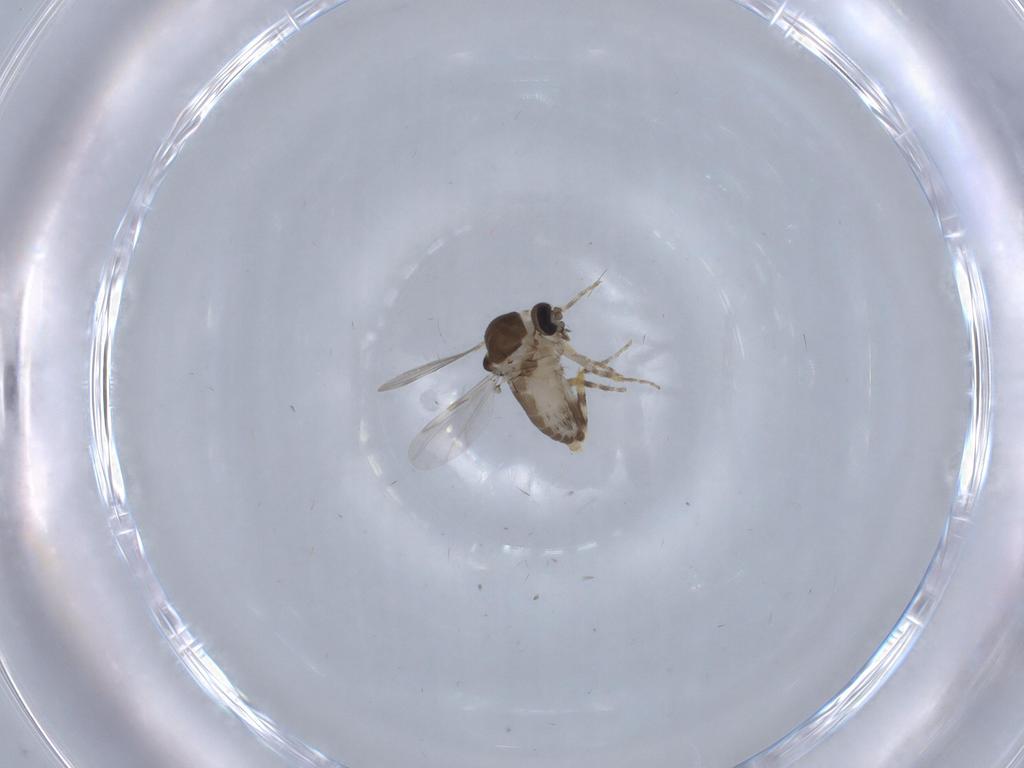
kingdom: Animalia
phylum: Arthropoda
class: Insecta
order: Diptera
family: Ceratopogonidae
